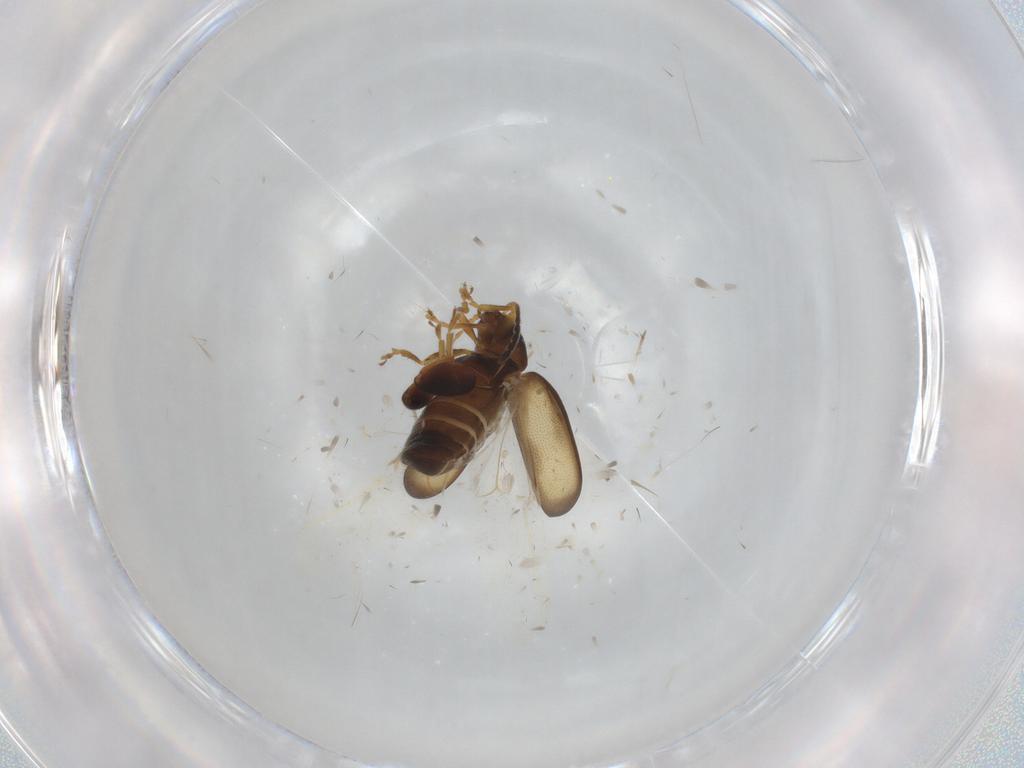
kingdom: Animalia
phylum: Arthropoda
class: Insecta
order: Coleoptera
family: Chrysomelidae
